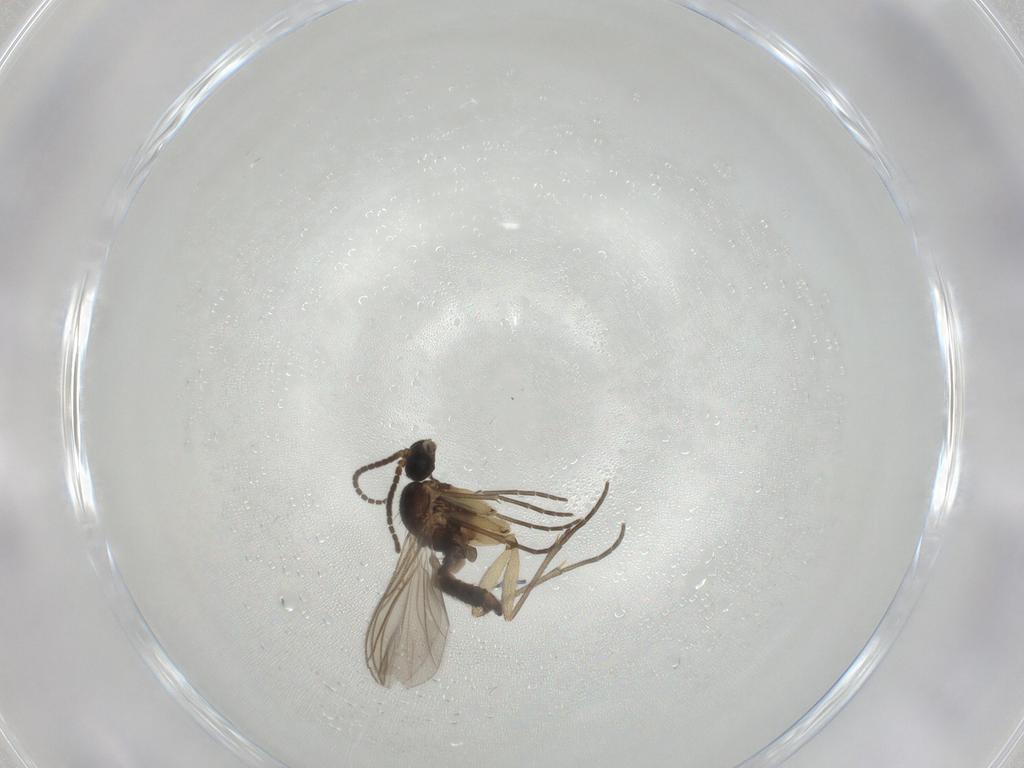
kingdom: Animalia
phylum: Arthropoda
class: Insecta
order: Diptera
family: Sciaridae
